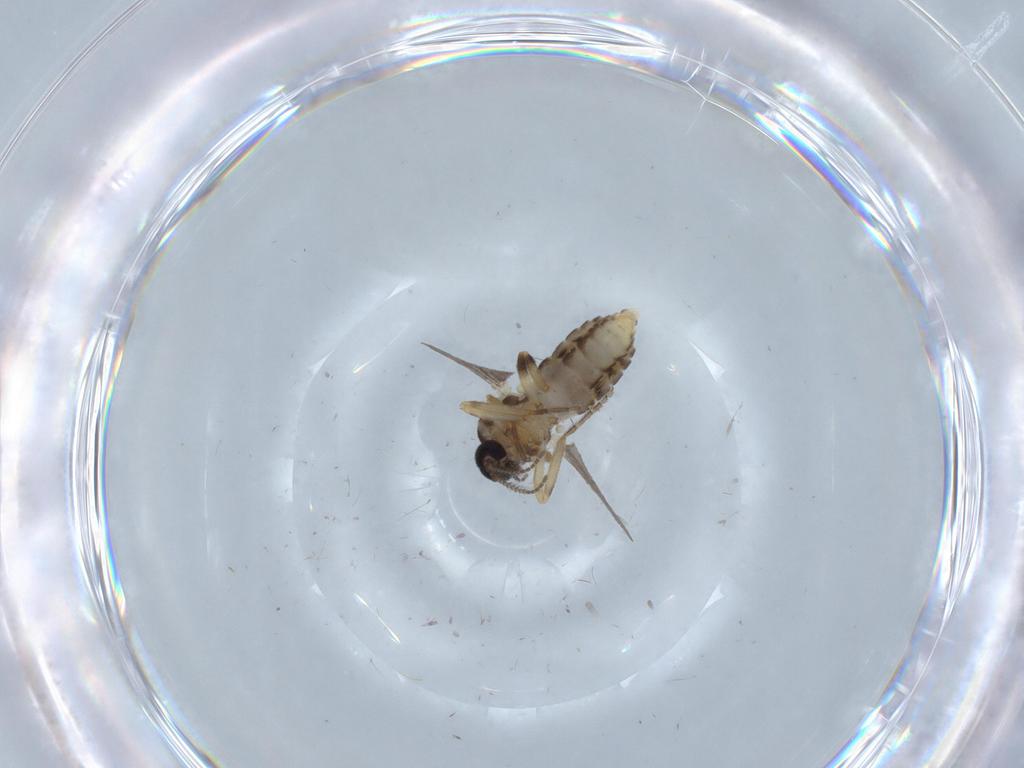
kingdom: Animalia
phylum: Arthropoda
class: Insecta
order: Diptera
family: Ceratopogonidae
